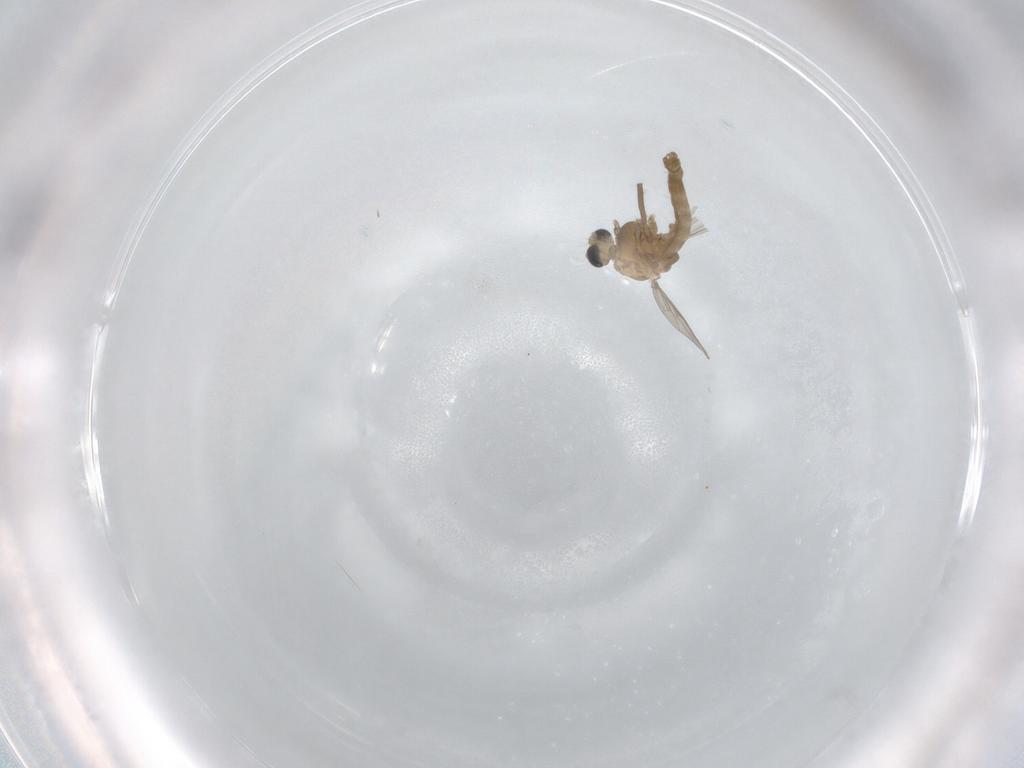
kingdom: Animalia
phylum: Arthropoda
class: Insecta
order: Diptera
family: Chironomidae
